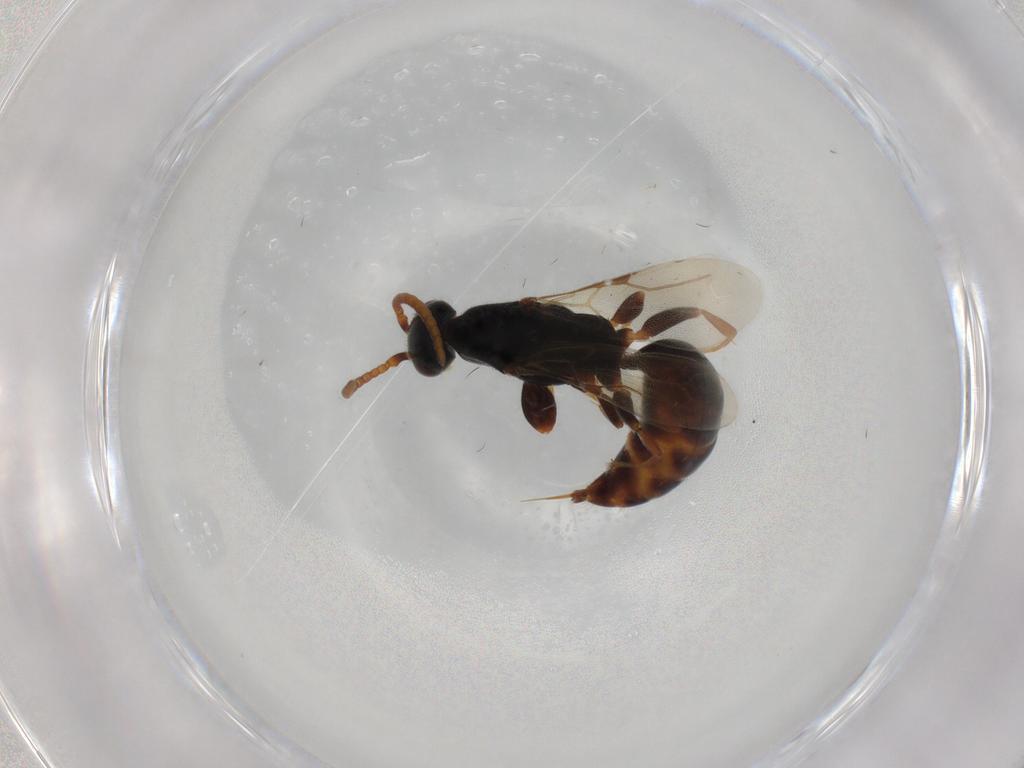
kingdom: Animalia
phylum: Arthropoda
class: Insecta
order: Hymenoptera
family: Bethylidae
